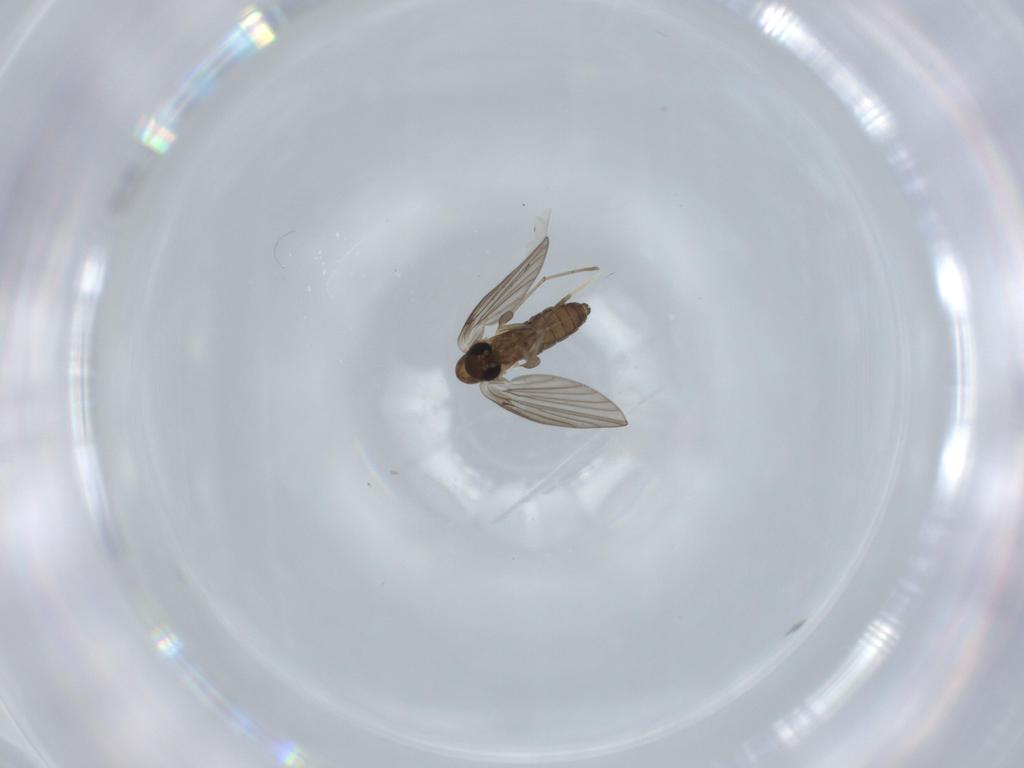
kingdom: Animalia
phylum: Arthropoda
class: Insecta
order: Diptera
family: Psychodidae
